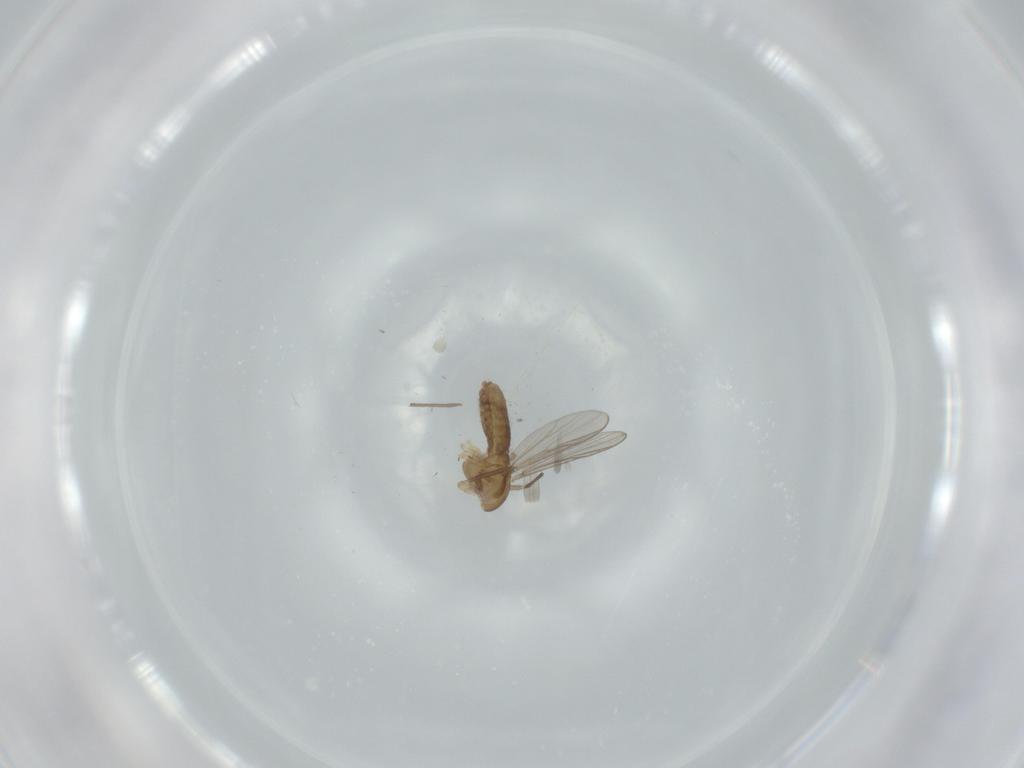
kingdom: Animalia
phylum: Arthropoda
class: Insecta
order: Diptera
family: Chironomidae
